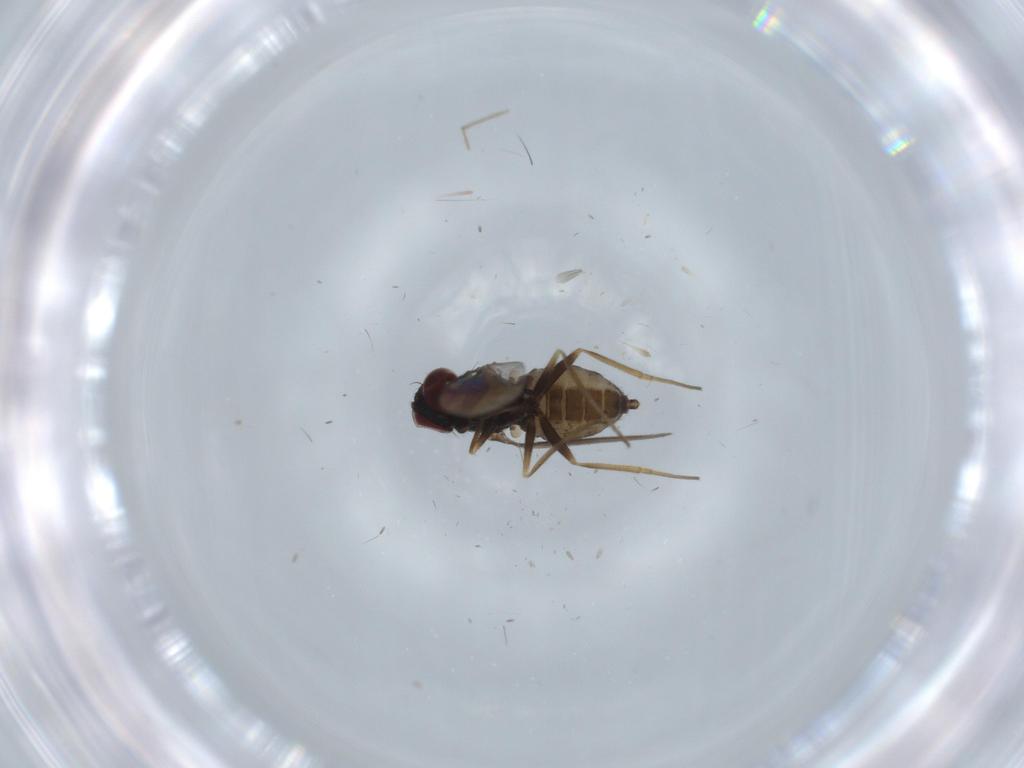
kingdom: Animalia
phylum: Arthropoda
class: Insecta
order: Diptera
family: Dolichopodidae
